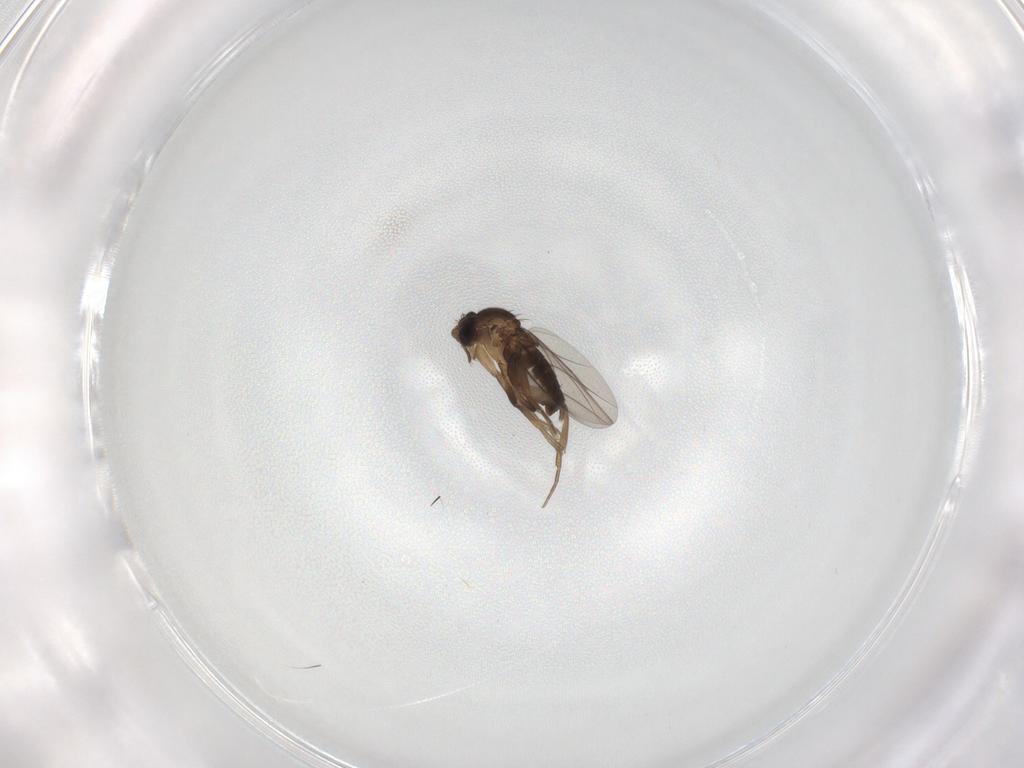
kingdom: Animalia
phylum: Arthropoda
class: Insecta
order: Diptera
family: Phoridae
